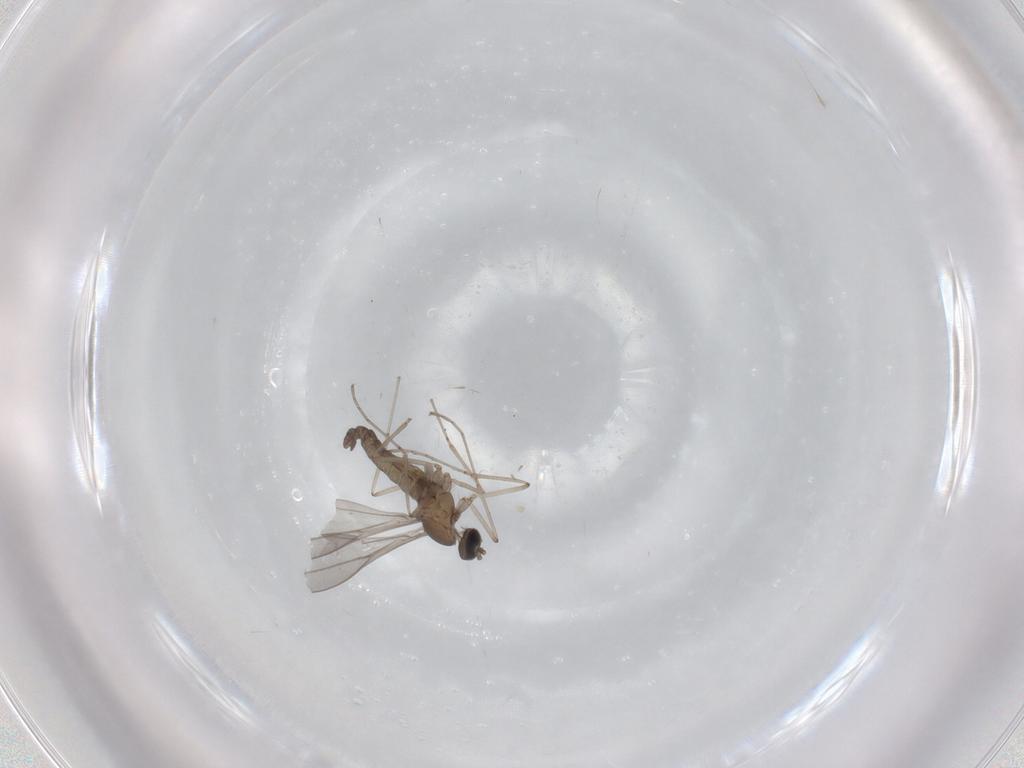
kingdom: Animalia
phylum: Arthropoda
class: Insecta
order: Diptera
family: Cecidomyiidae
